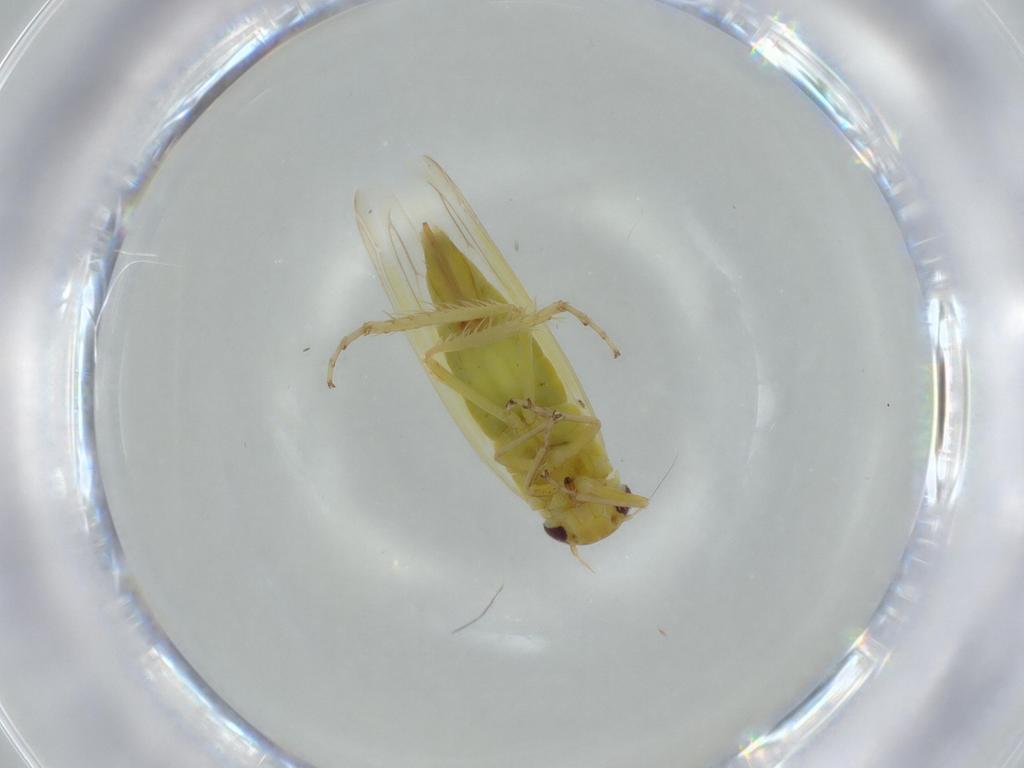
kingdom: Animalia
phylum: Arthropoda
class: Insecta
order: Hemiptera
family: Cicadellidae
